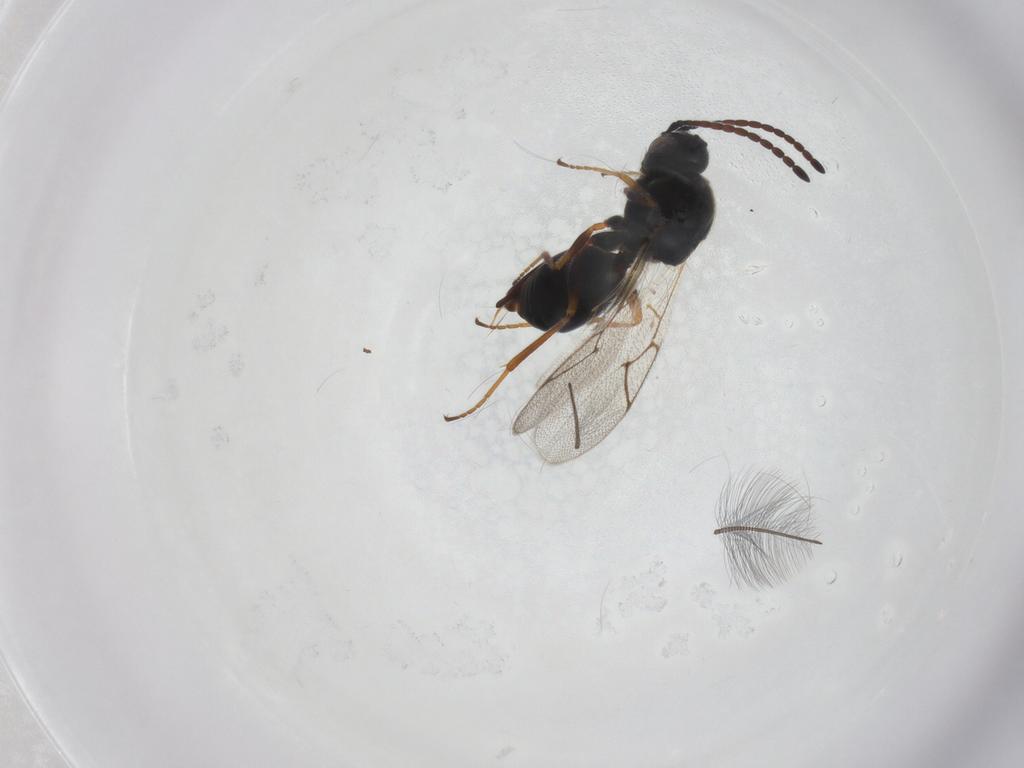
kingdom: Animalia
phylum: Arthropoda
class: Insecta
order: Hymenoptera
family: Figitidae
